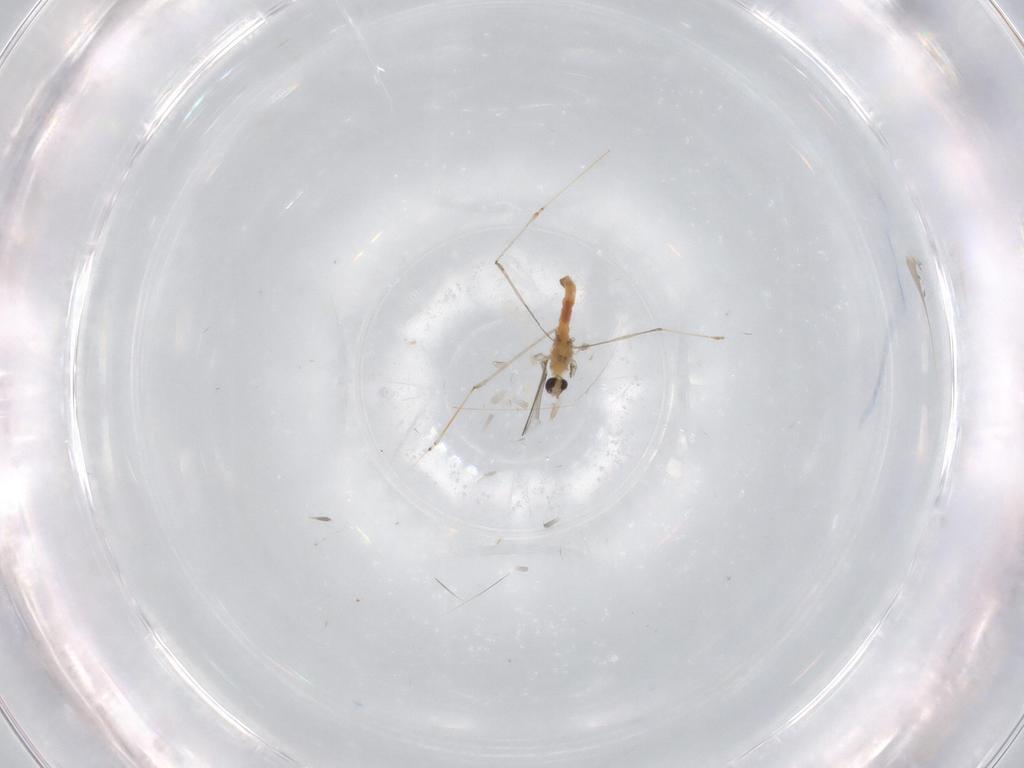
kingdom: Animalia
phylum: Arthropoda
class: Insecta
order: Diptera
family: Cecidomyiidae
